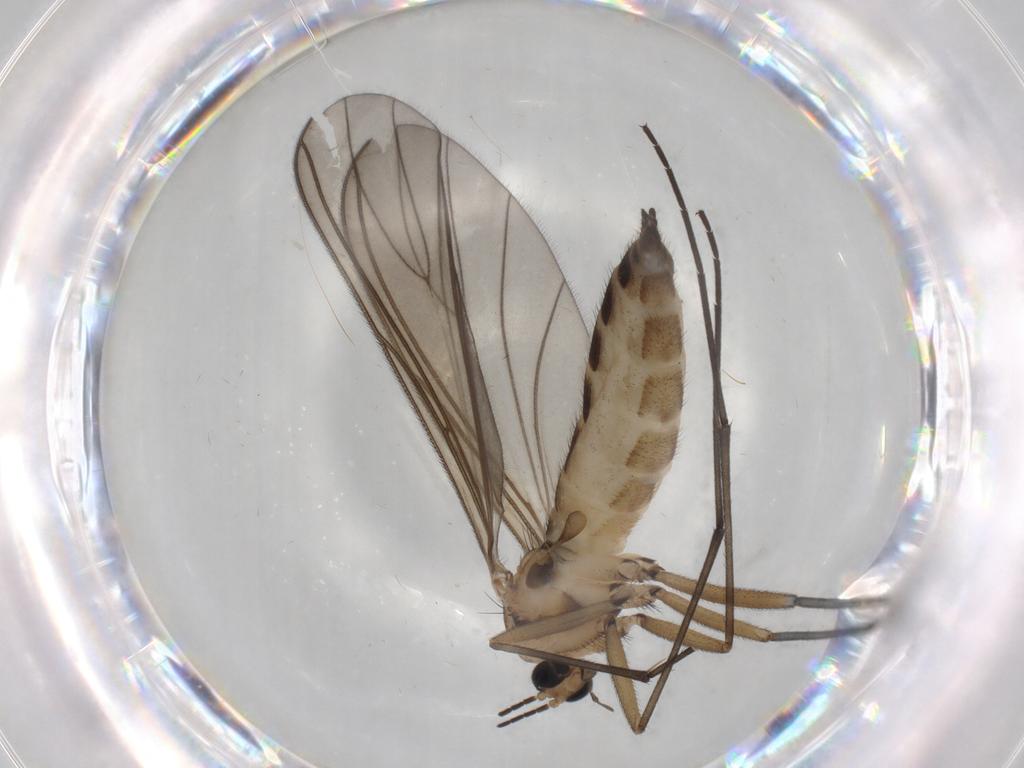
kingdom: Animalia
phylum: Arthropoda
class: Insecta
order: Diptera
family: Sciaridae
